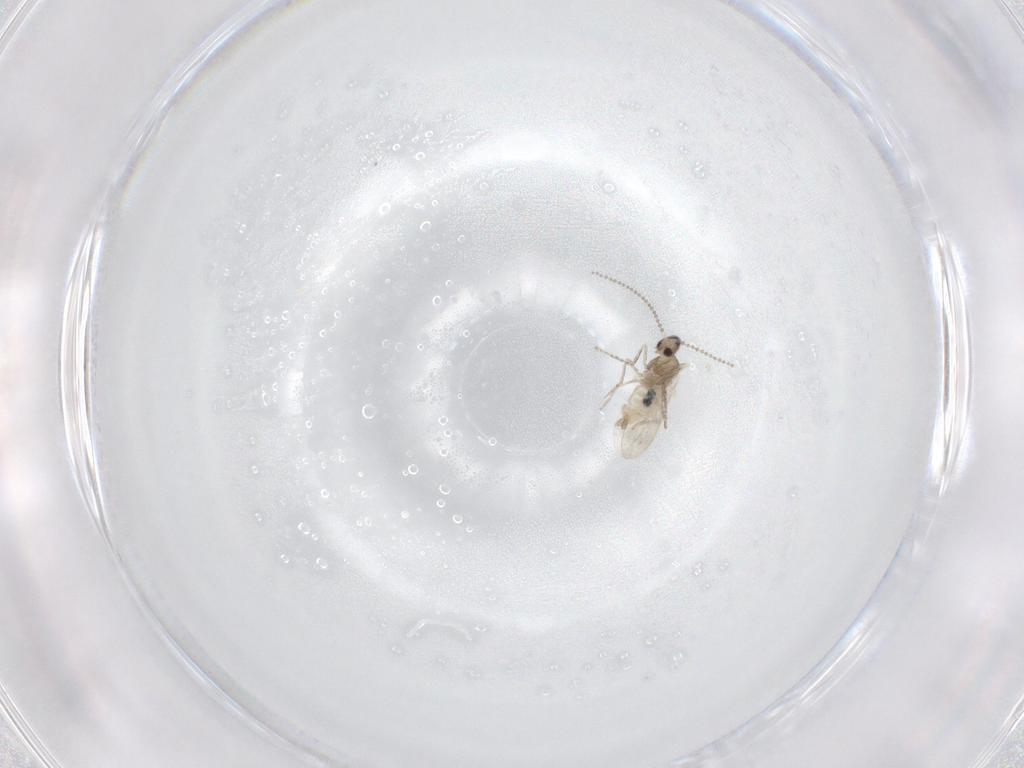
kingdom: Animalia
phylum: Arthropoda
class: Insecta
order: Diptera
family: Cecidomyiidae
